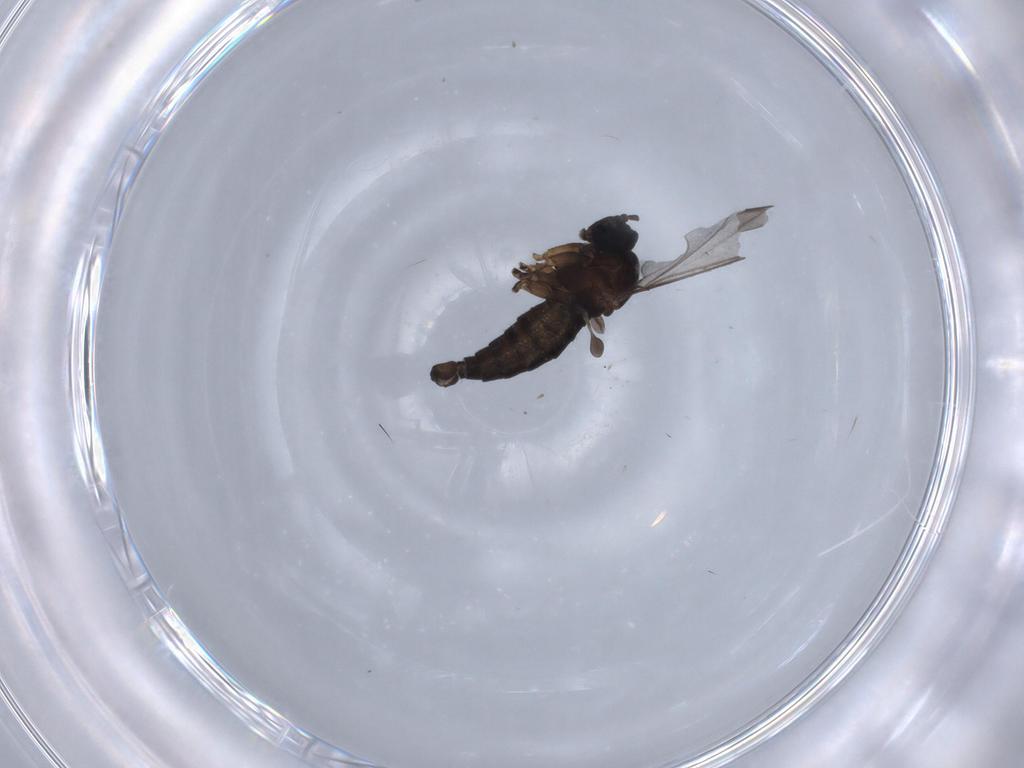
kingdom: Animalia
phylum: Arthropoda
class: Insecta
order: Diptera
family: Sciaridae
